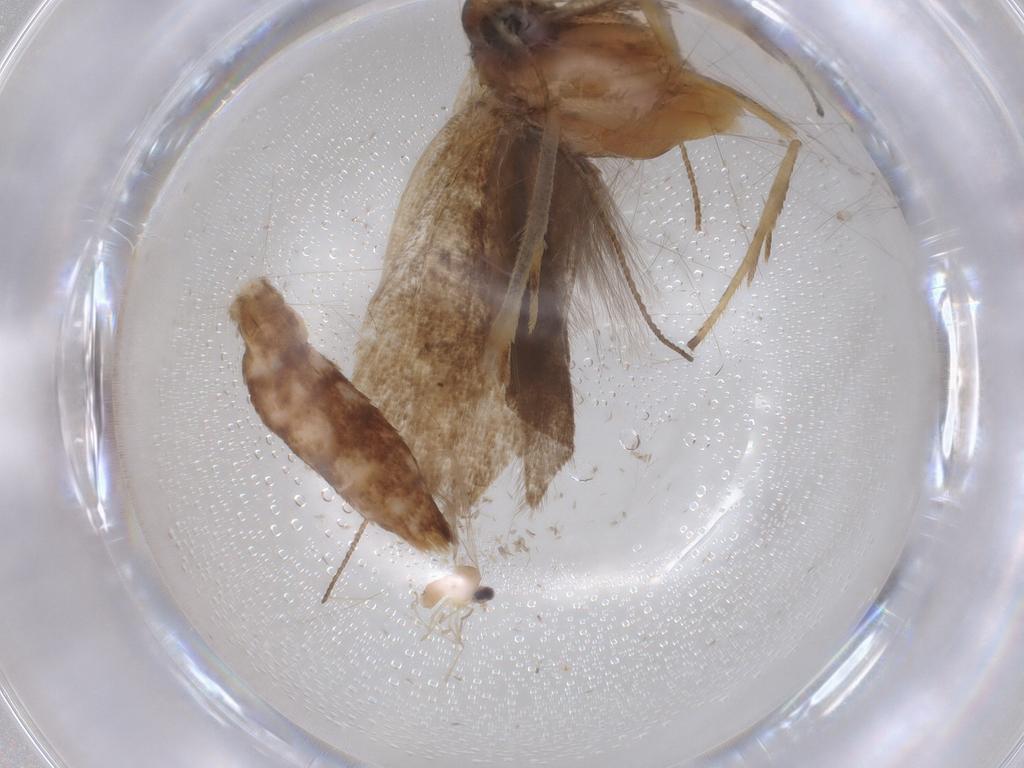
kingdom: Animalia
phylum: Arthropoda
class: Insecta
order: Lepidoptera
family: Gelechiidae
